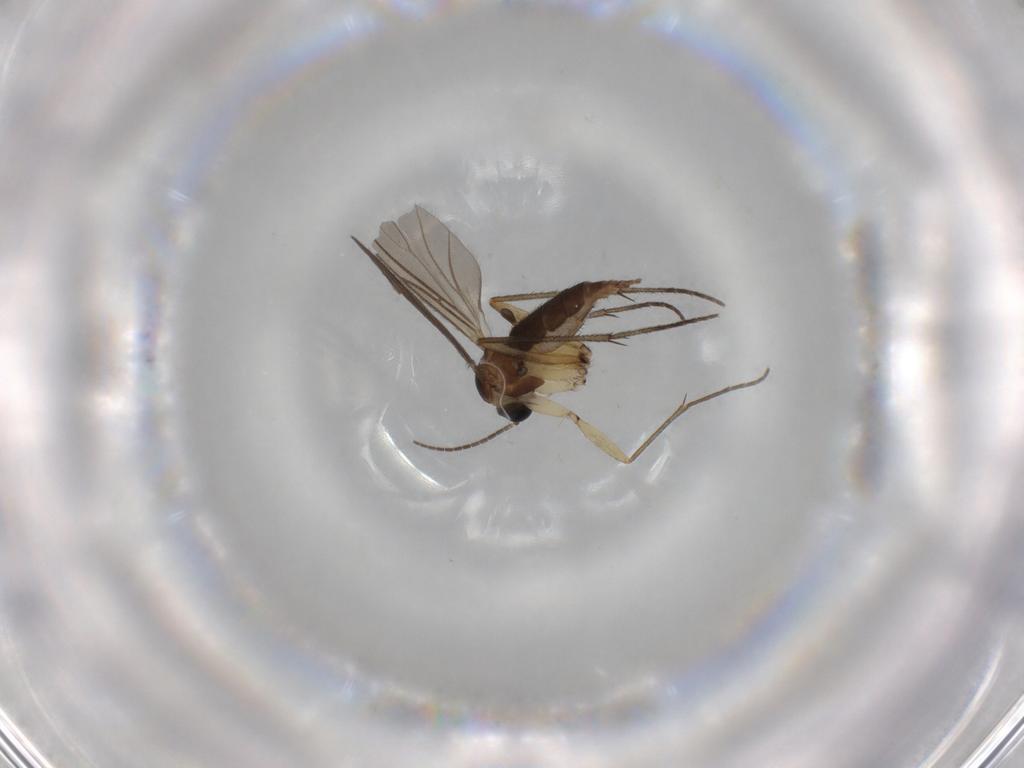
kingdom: Animalia
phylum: Arthropoda
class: Insecta
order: Diptera
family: Sciaridae
